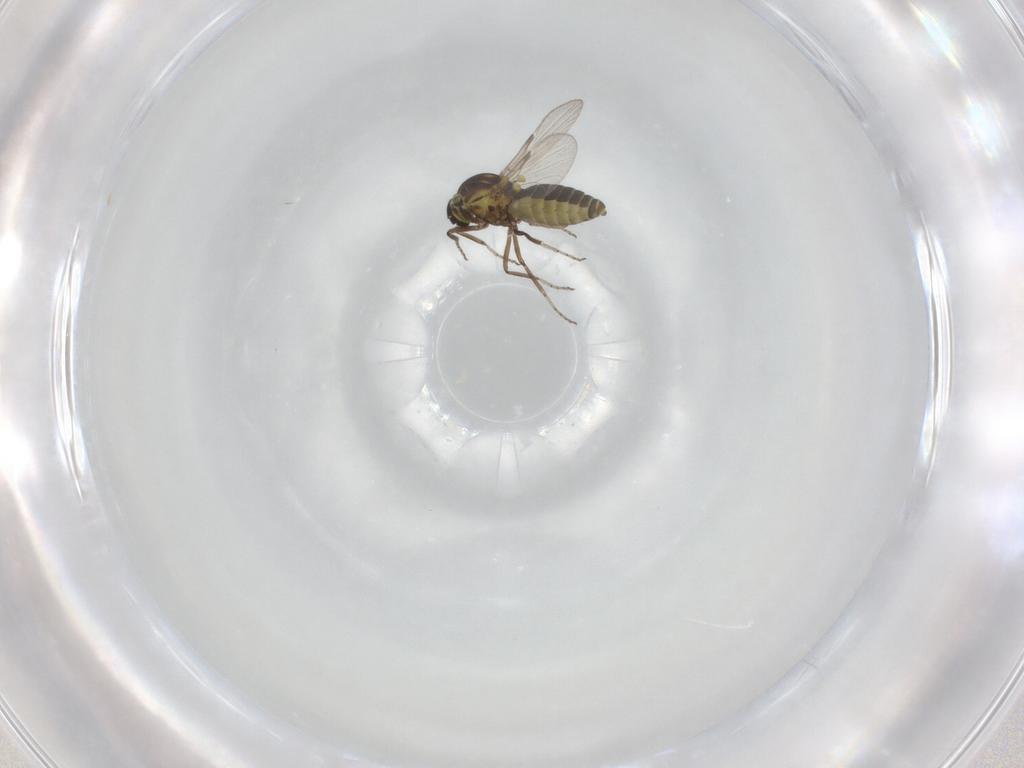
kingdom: Animalia
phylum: Arthropoda
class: Insecta
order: Diptera
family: Ceratopogonidae
